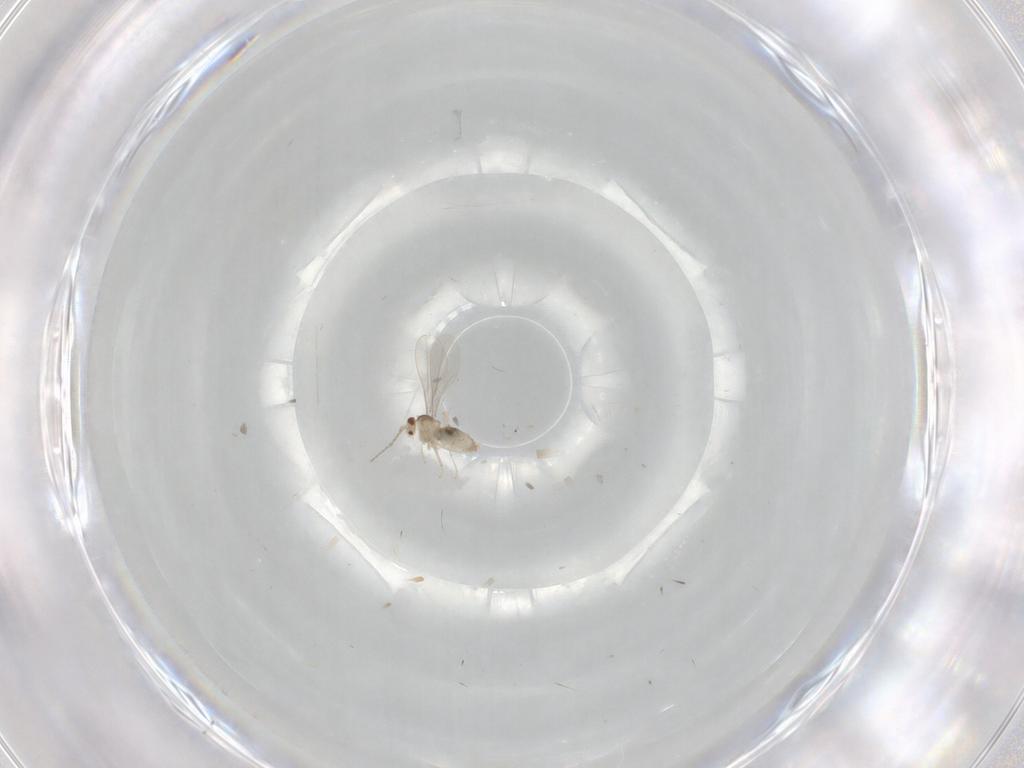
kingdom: Animalia
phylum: Arthropoda
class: Insecta
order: Diptera
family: Cecidomyiidae
